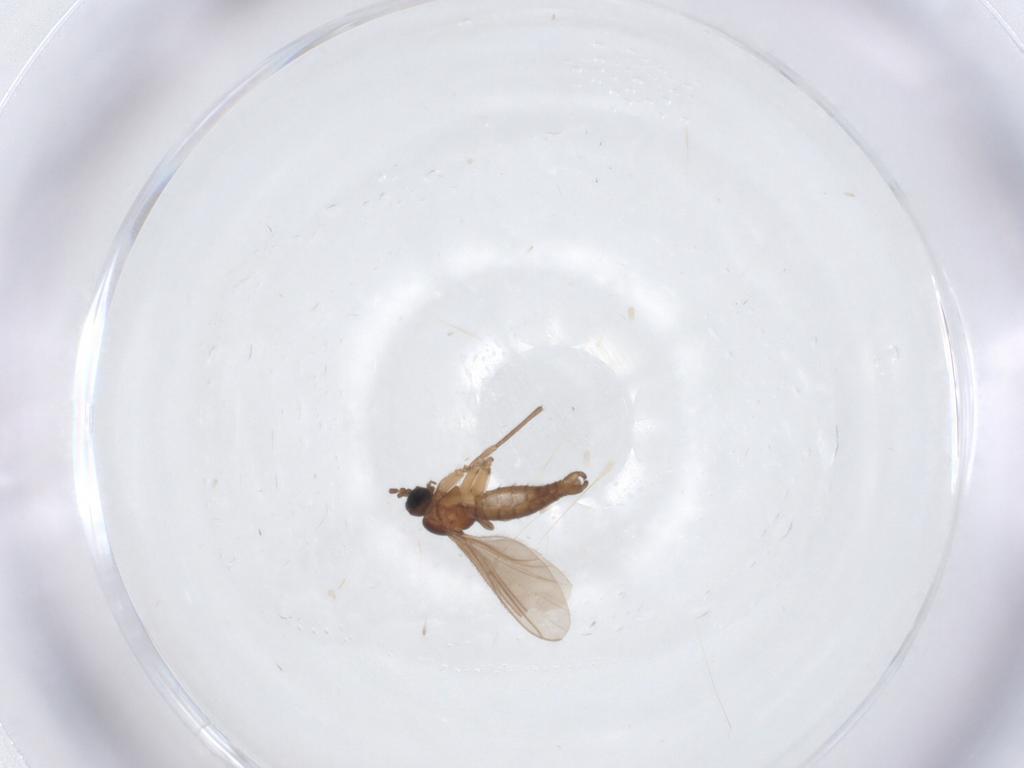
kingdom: Animalia
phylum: Arthropoda
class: Insecta
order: Diptera
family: Sciaridae
